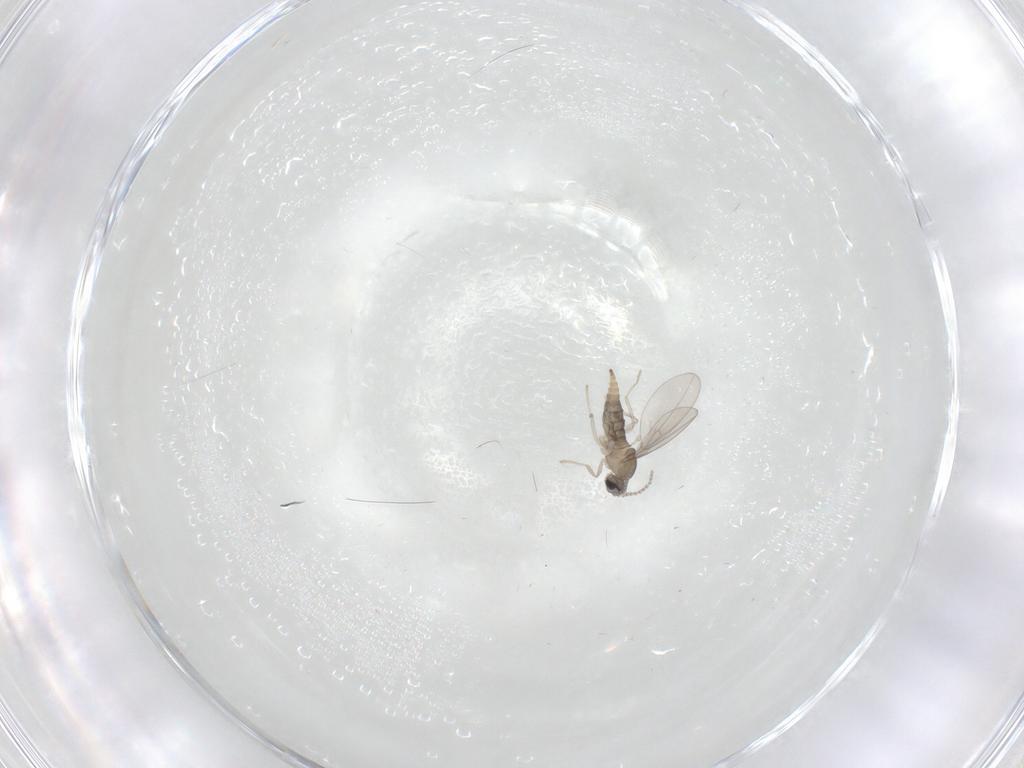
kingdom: Animalia
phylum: Arthropoda
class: Insecta
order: Diptera
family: Cecidomyiidae
